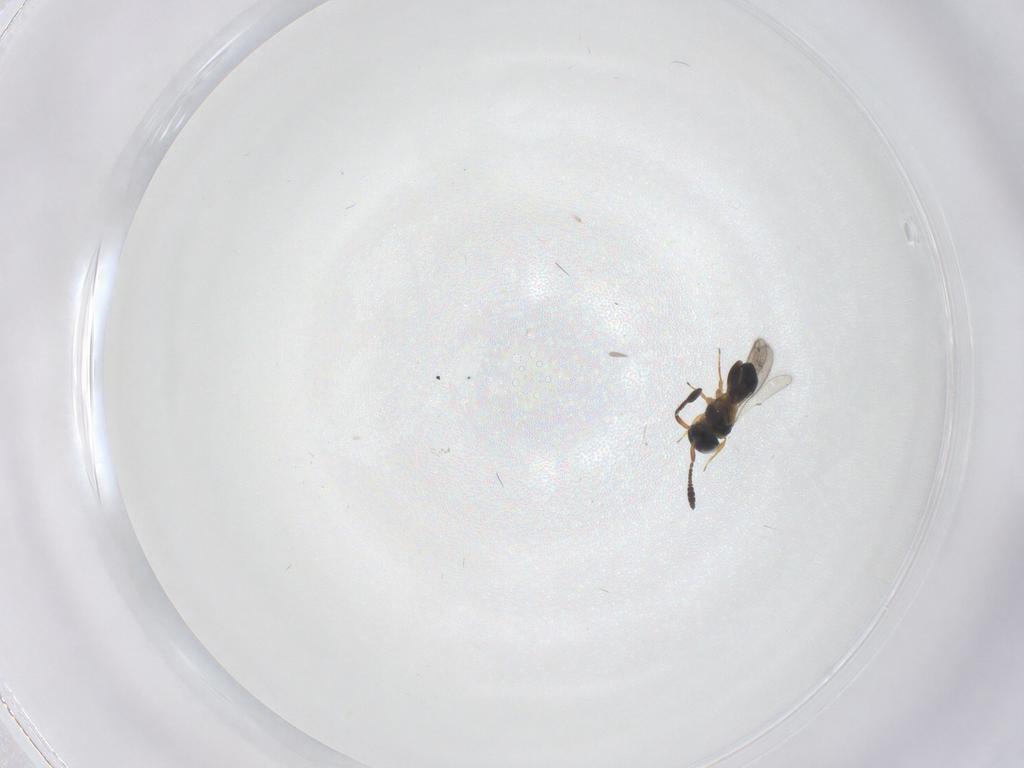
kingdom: Animalia
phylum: Arthropoda
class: Insecta
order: Hymenoptera
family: Scelionidae
